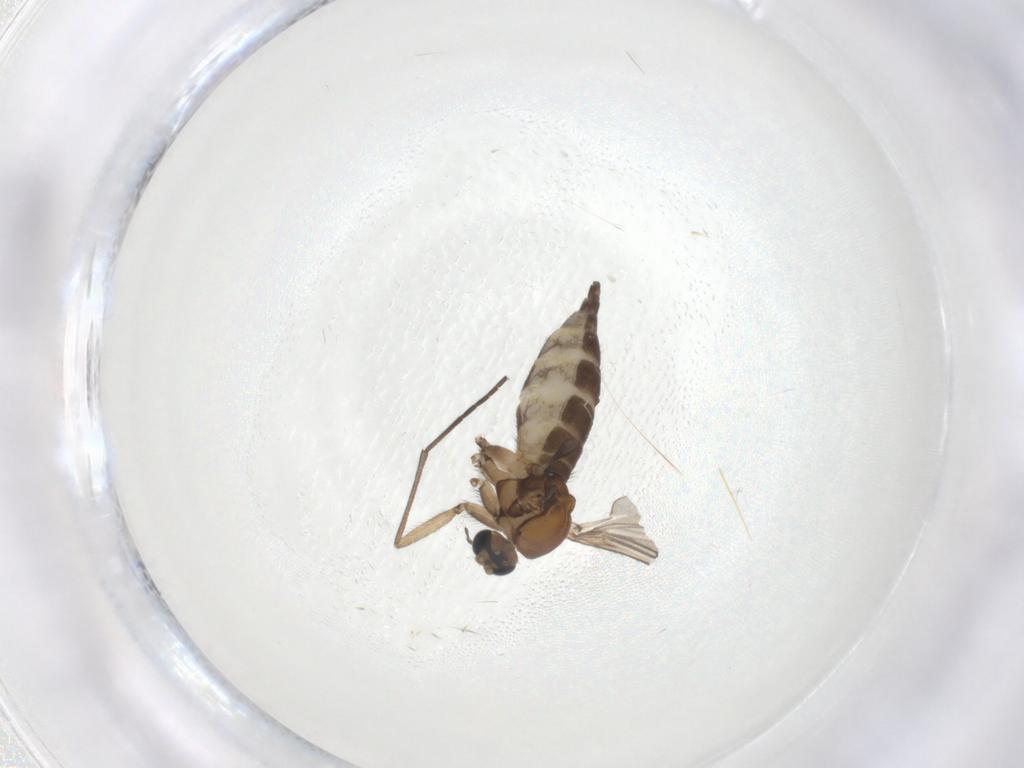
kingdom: Animalia
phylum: Arthropoda
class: Insecta
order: Diptera
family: Sciaridae
